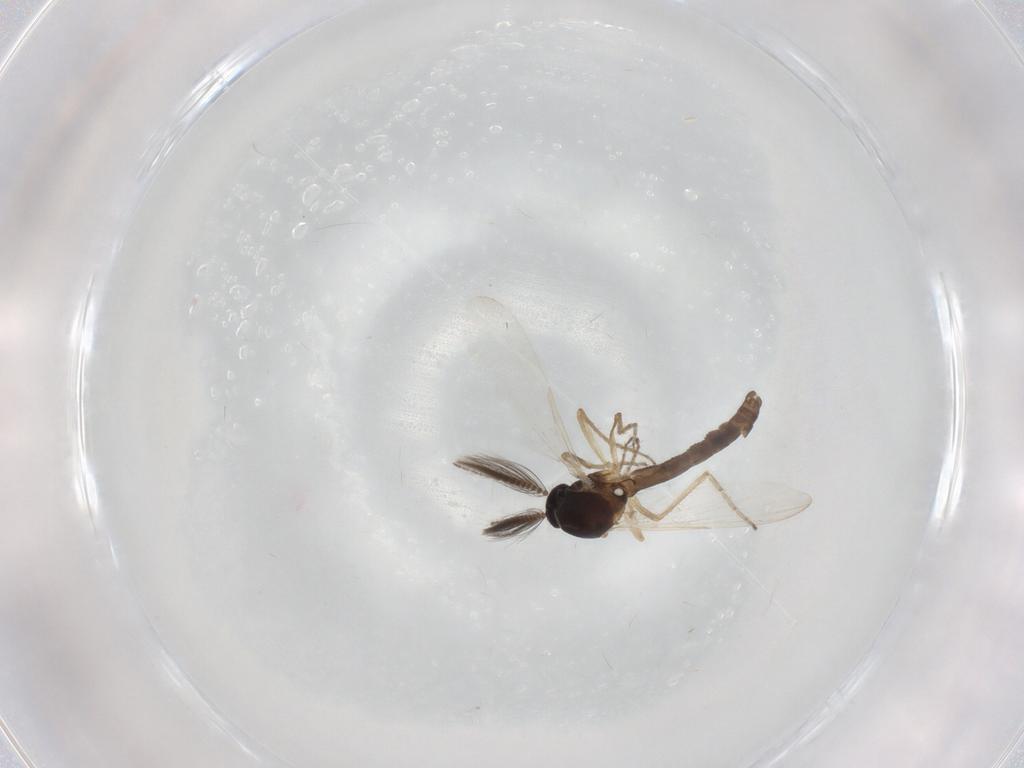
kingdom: Animalia
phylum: Arthropoda
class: Insecta
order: Diptera
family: Ceratopogonidae
